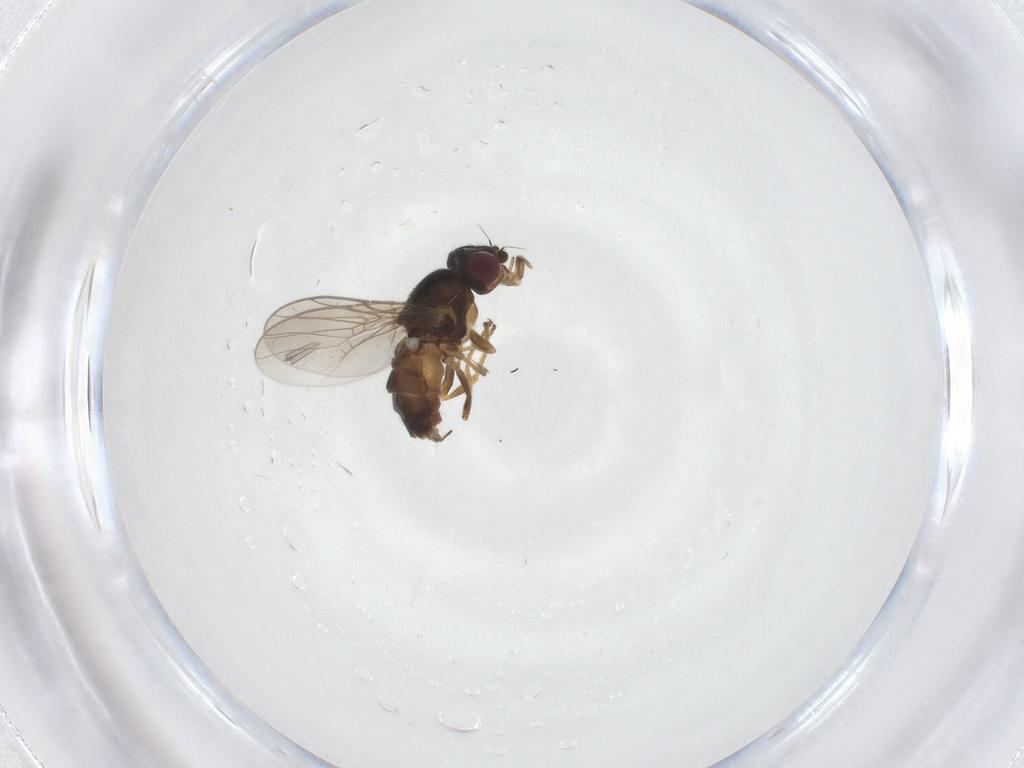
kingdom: Animalia
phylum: Arthropoda
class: Insecta
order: Diptera
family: Chloropidae
